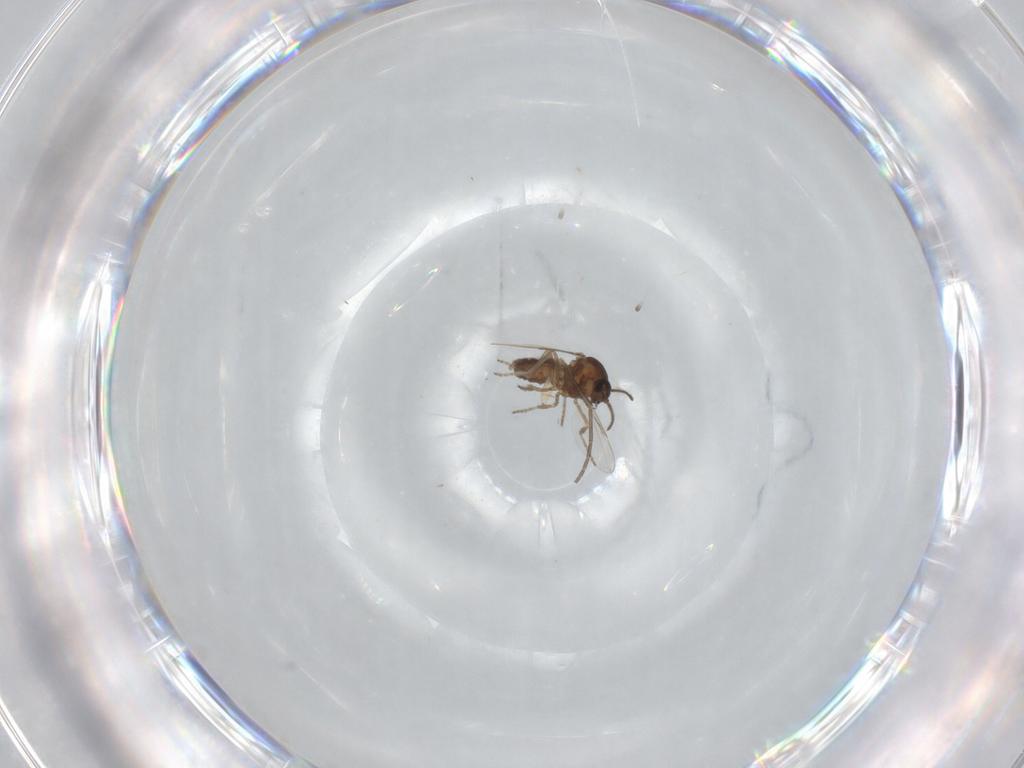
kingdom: Animalia
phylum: Arthropoda
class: Insecta
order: Diptera
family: Ceratopogonidae
